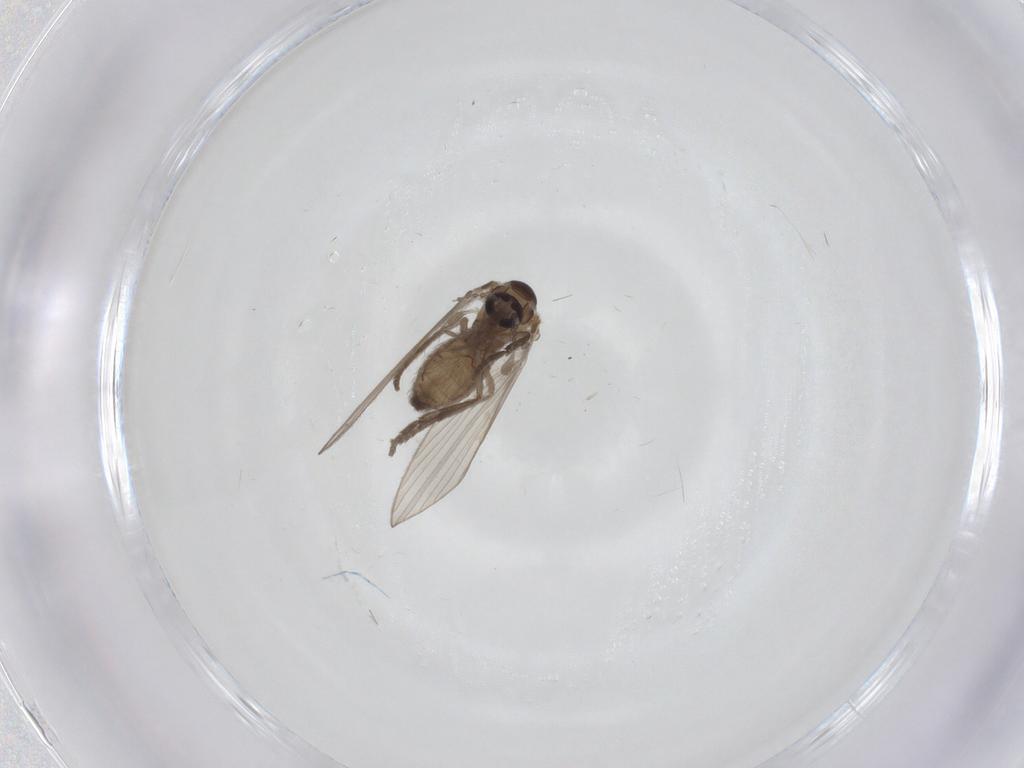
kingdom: Animalia
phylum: Arthropoda
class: Insecta
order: Diptera
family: Psychodidae
